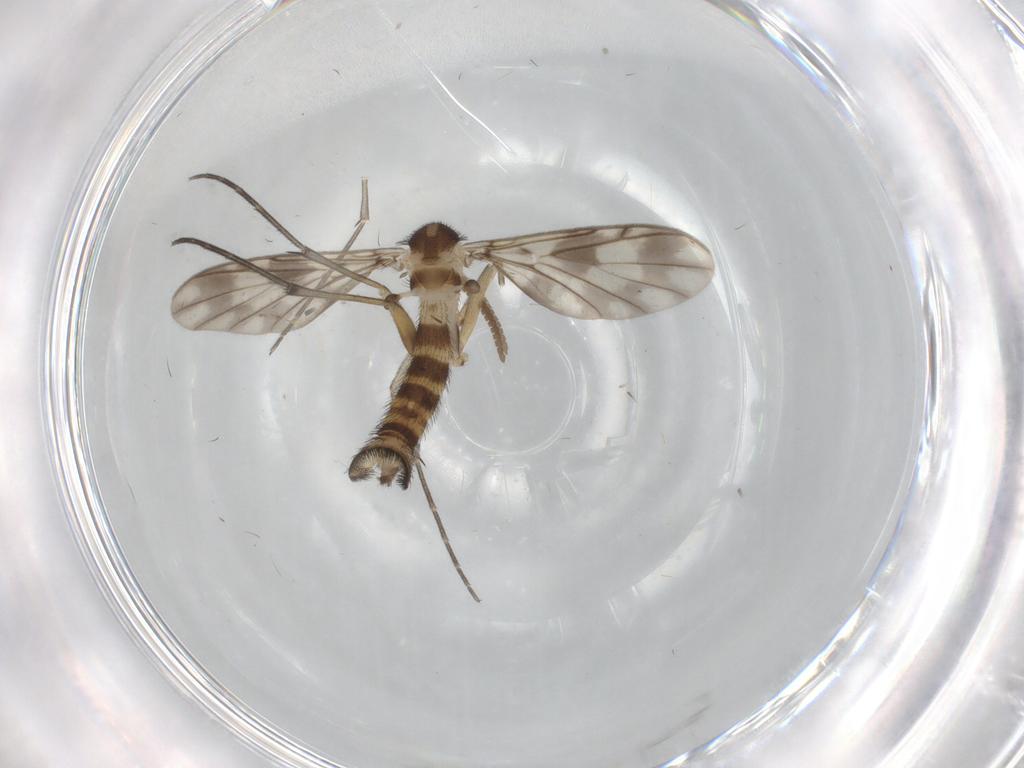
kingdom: Animalia
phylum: Arthropoda
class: Insecta
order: Diptera
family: Keroplatidae
